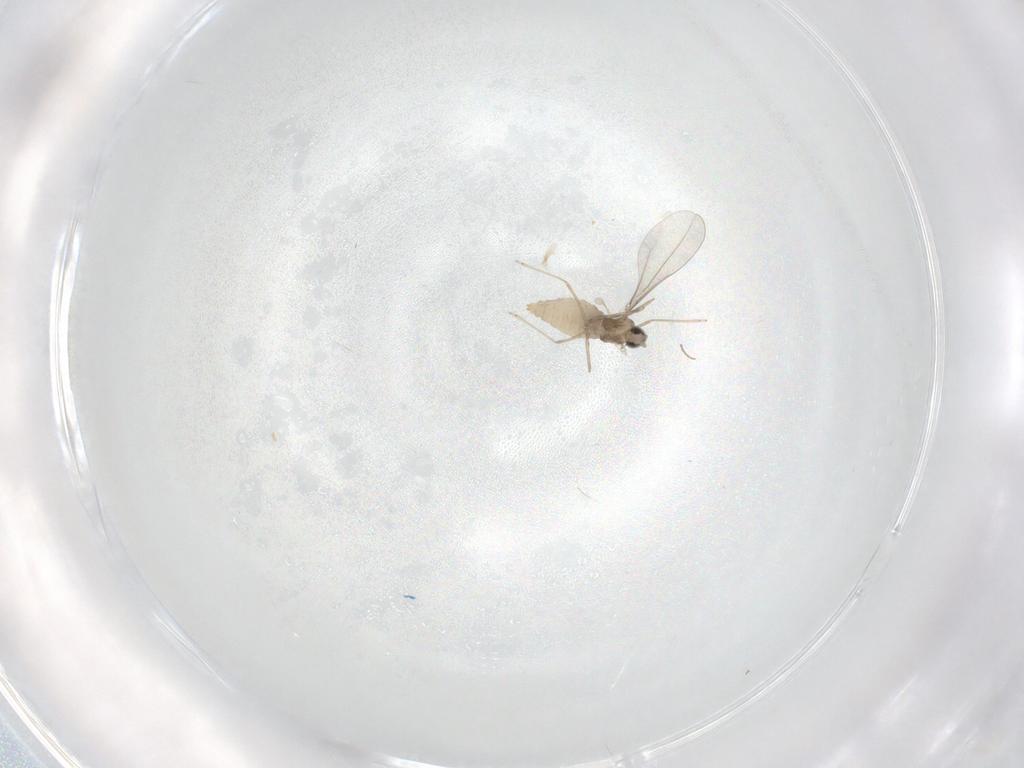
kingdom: Animalia
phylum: Arthropoda
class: Insecta
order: Diptera
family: Cecidomyiidae
